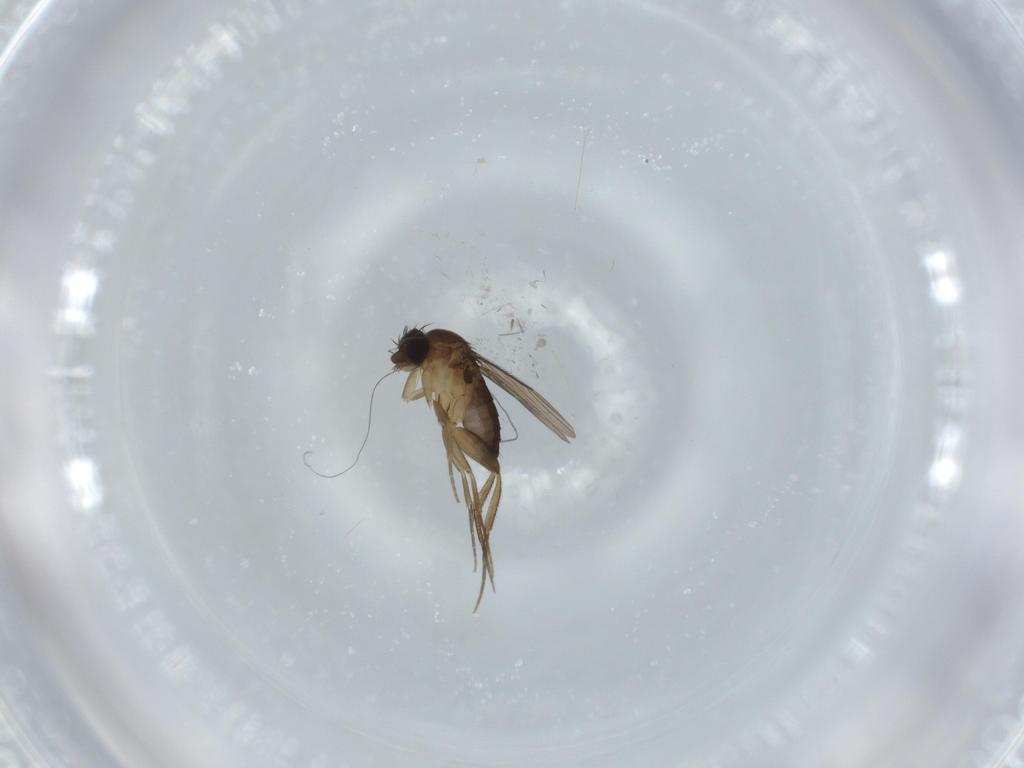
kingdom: Animalia
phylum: Arthropoda
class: Insecta
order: Diptera
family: Phoridae
